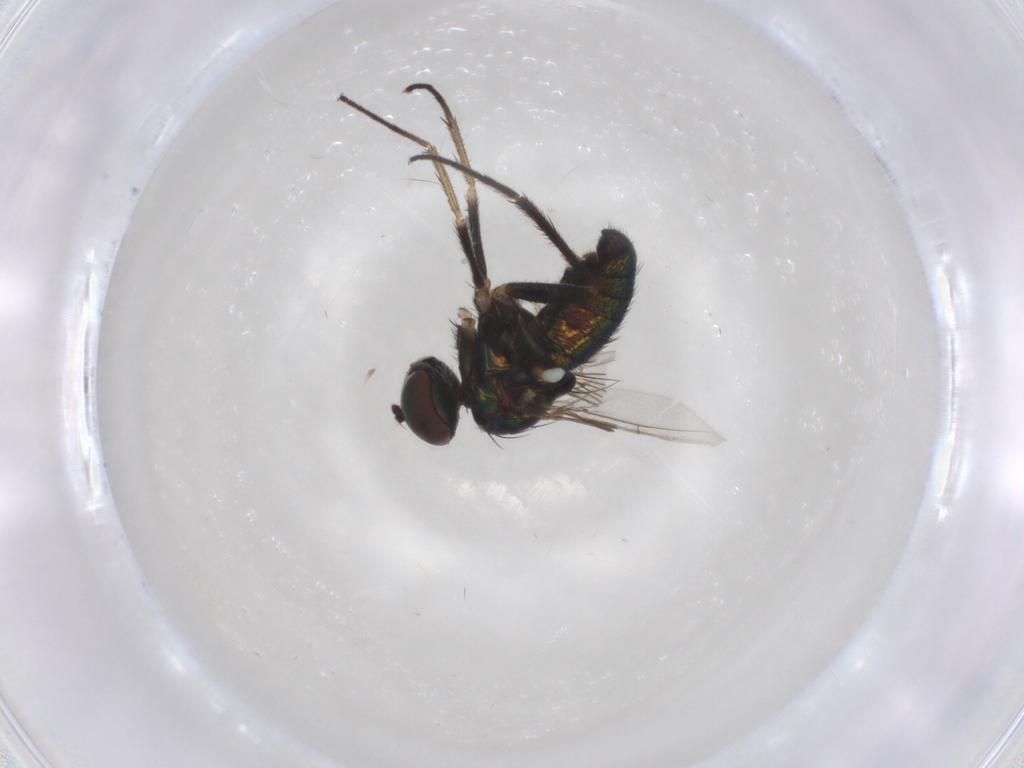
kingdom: Animalia
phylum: Arthropoda
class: Insecta
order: Diptera
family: Dolichopodidae
